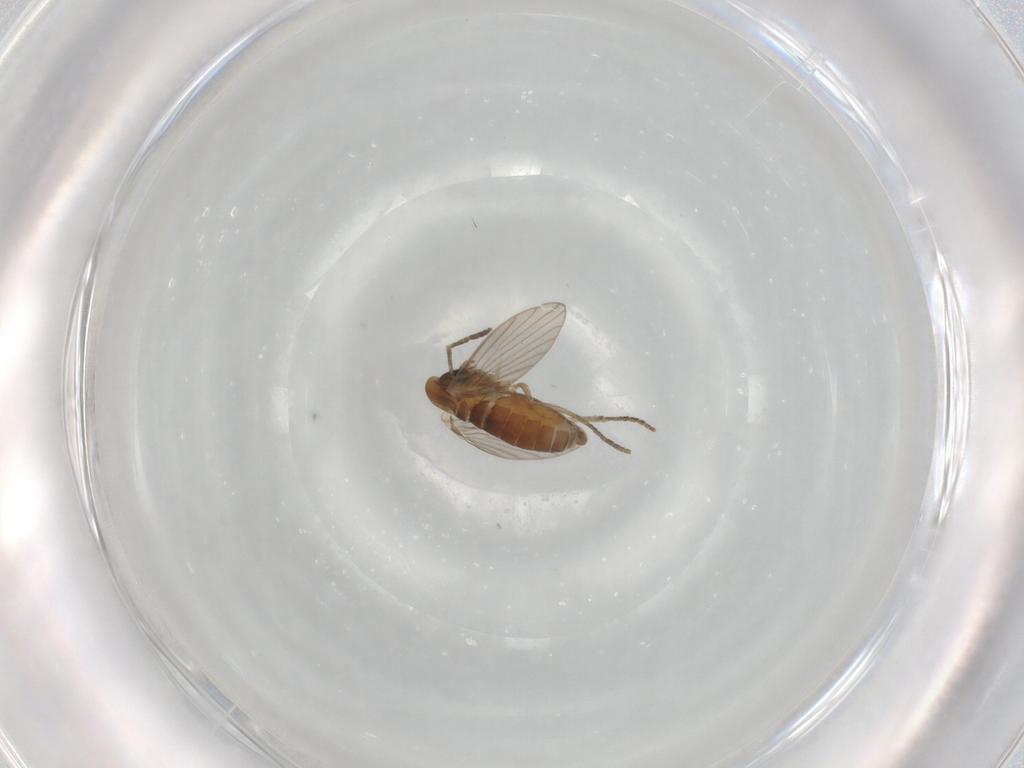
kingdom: Animalia
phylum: Arthropoda
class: Insecta
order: Diptera
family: Psychodidae
